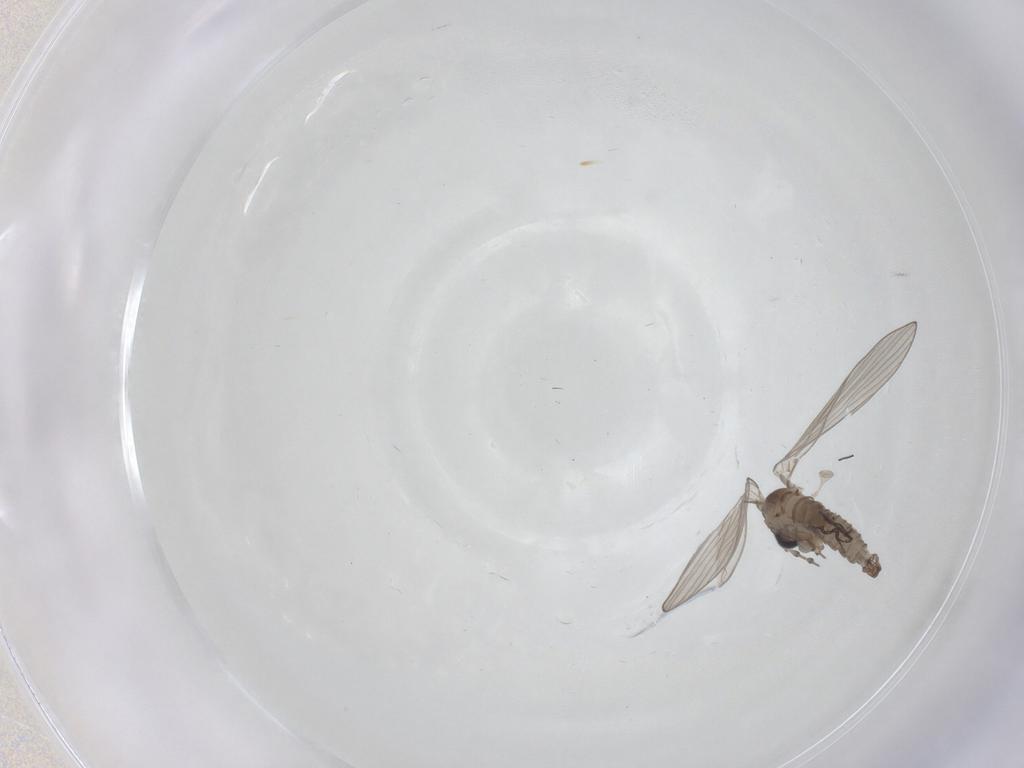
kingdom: Animalia
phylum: Arthropoda
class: Insecta
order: Diptera
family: Psychodidae
